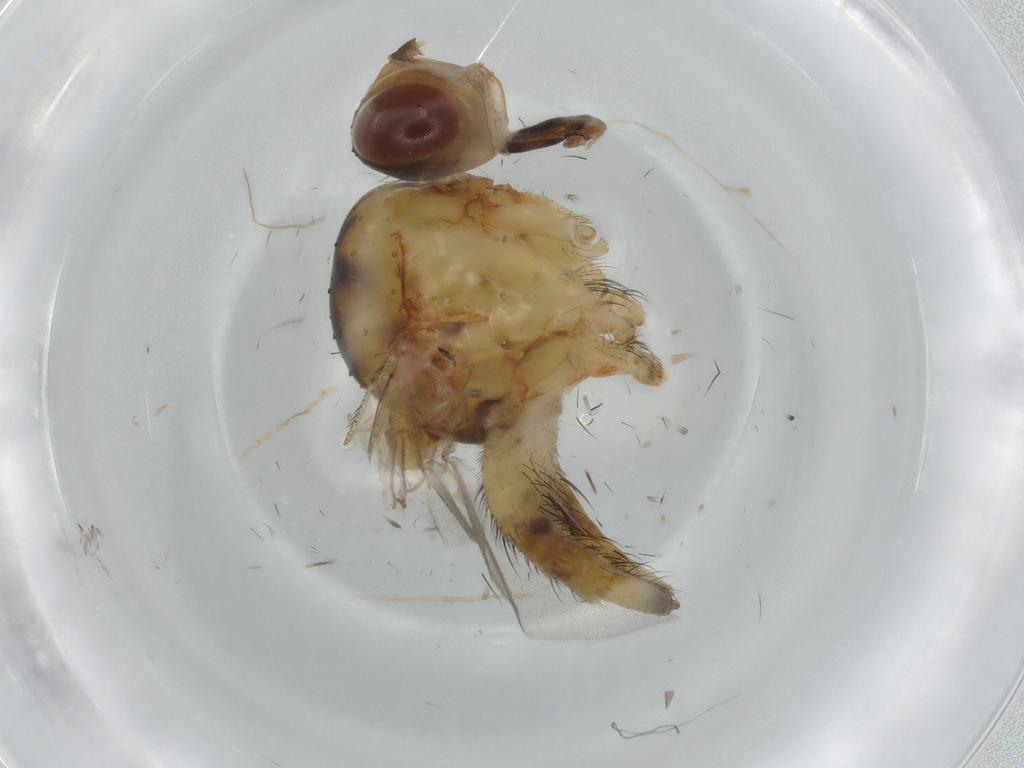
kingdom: Animalia
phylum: Arthropoda
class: Insecta
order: Diptera
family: Anthomyiidae
